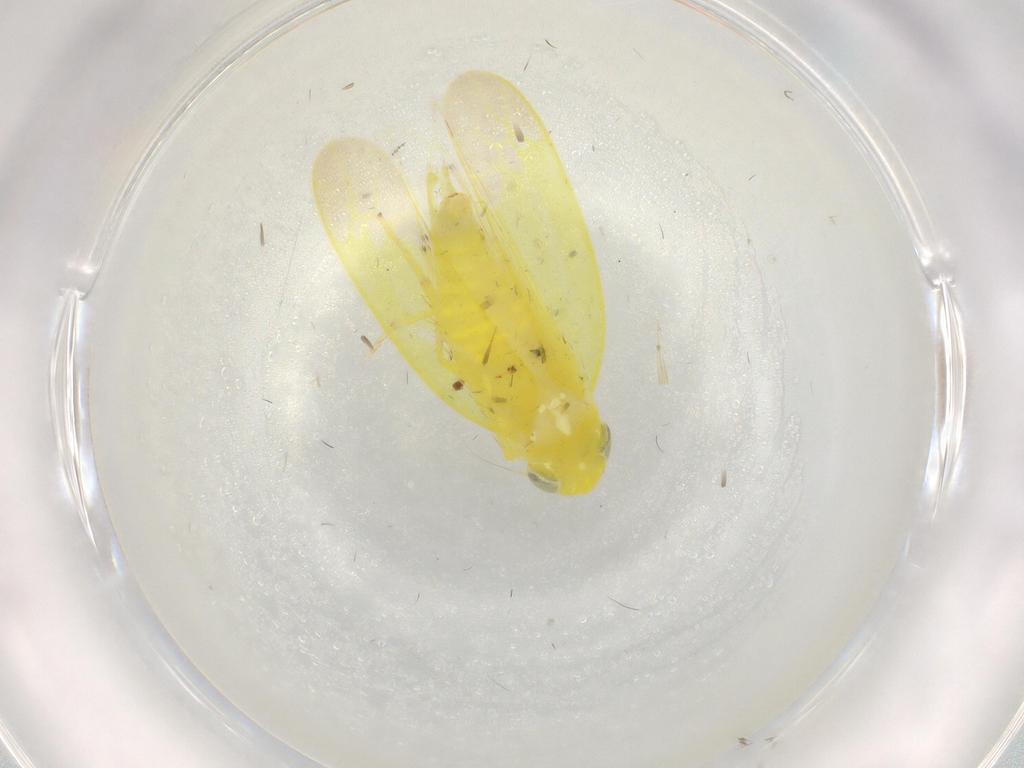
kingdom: Animalia
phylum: Arthropoda
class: Insecta
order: Hemiptera
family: Cicadellidae
